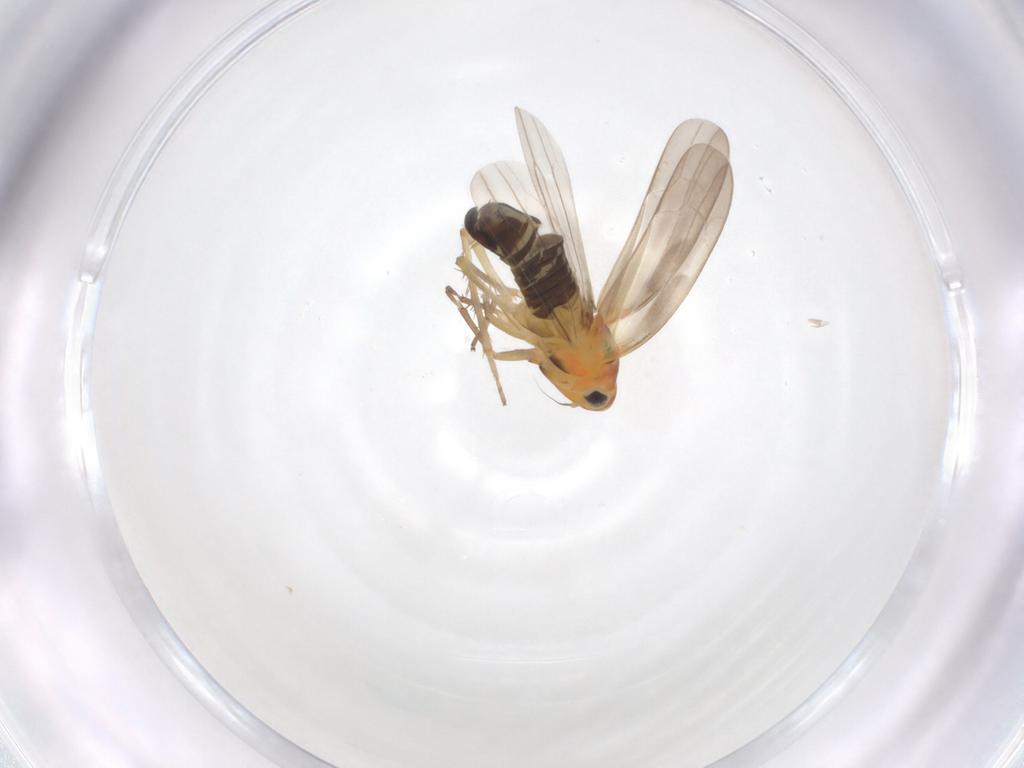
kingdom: Animalia
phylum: Arthropoda
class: Insecta
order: Hemiptera
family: Cicadellidae
